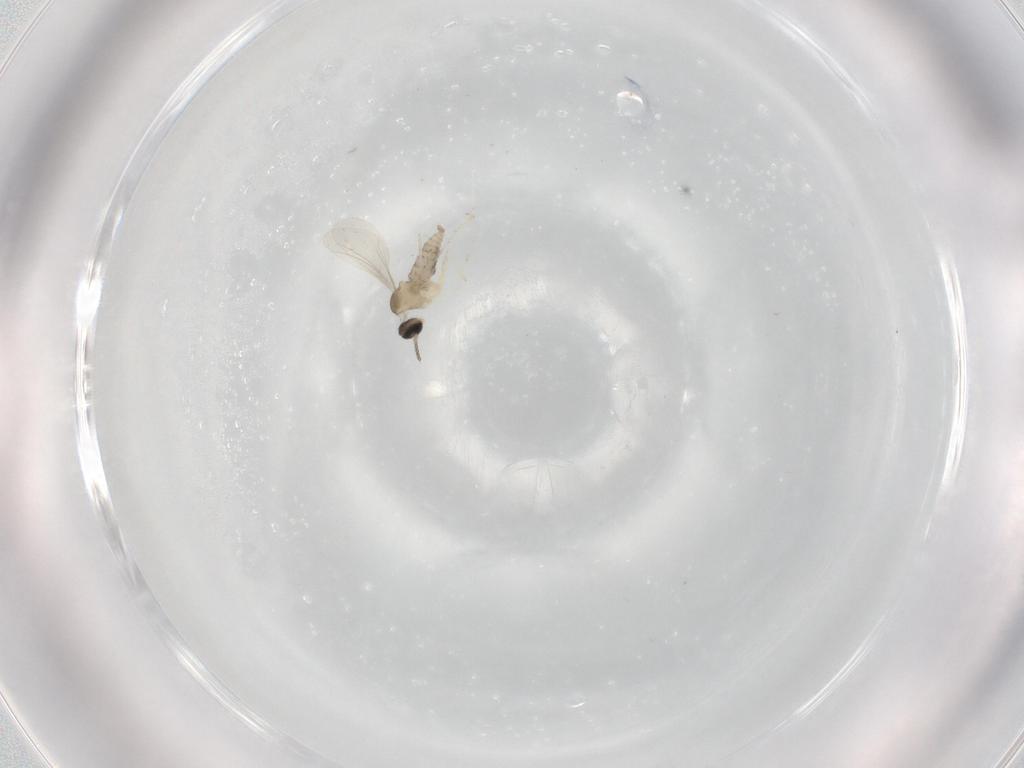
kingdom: Animalia
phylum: Arthropoda
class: Insecta
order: Diptera
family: Cecidomyiidae
